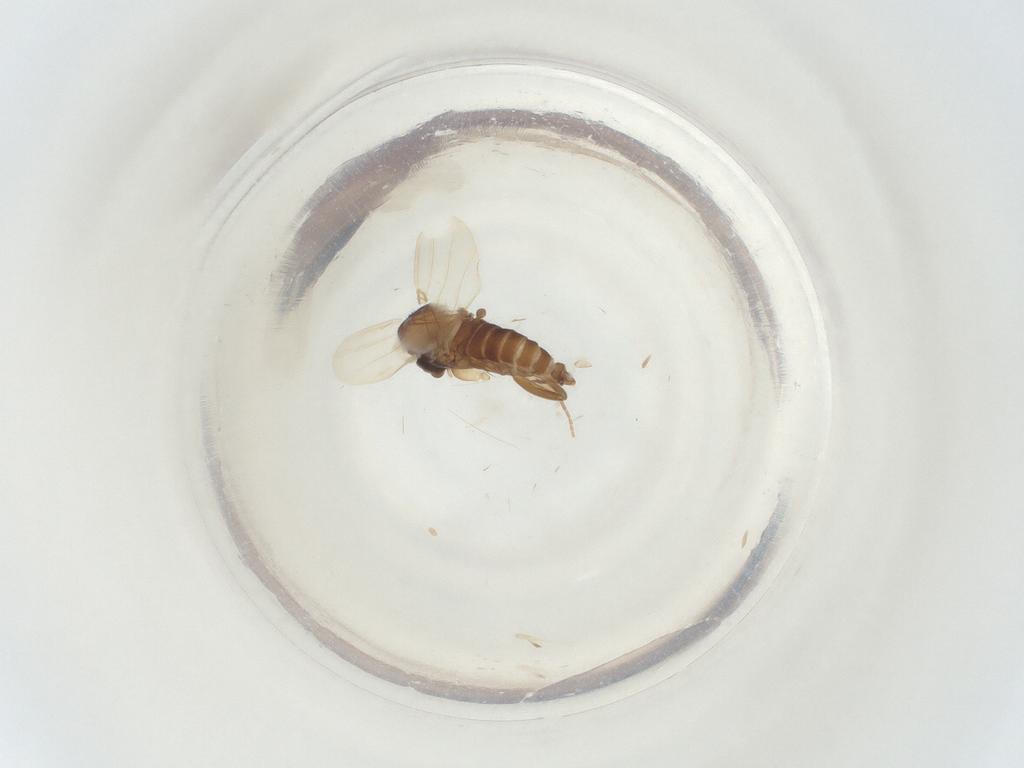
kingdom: Animalia
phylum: Arthropoda
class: Insecta
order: Diptera
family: Phoridae
